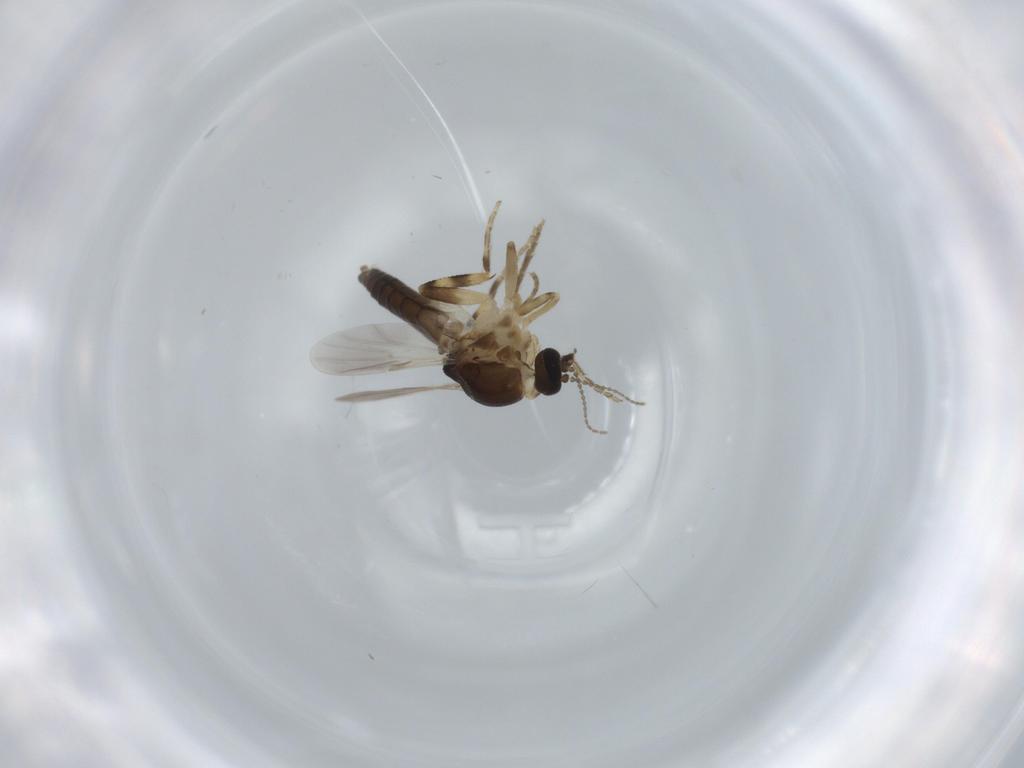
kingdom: Animalia
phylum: Arthropoda
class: Insecta
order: Diptera
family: Ceratopogonidae
